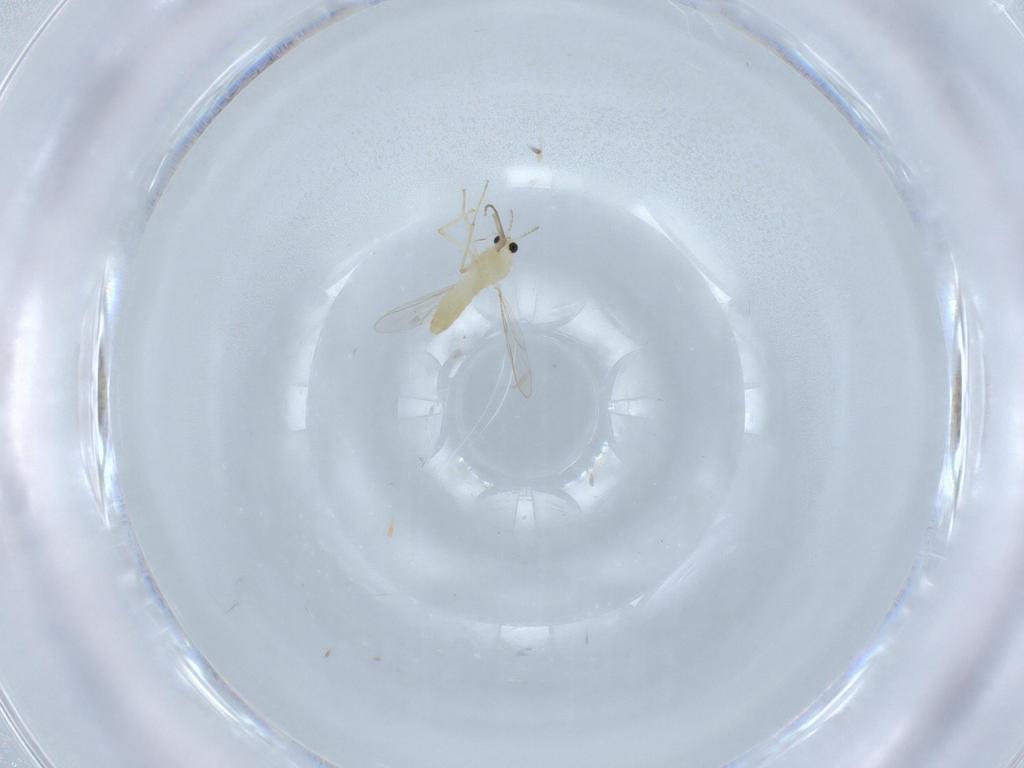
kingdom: Animalia
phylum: Arthropoda
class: Insecta
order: Diptera
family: Chironomidae
